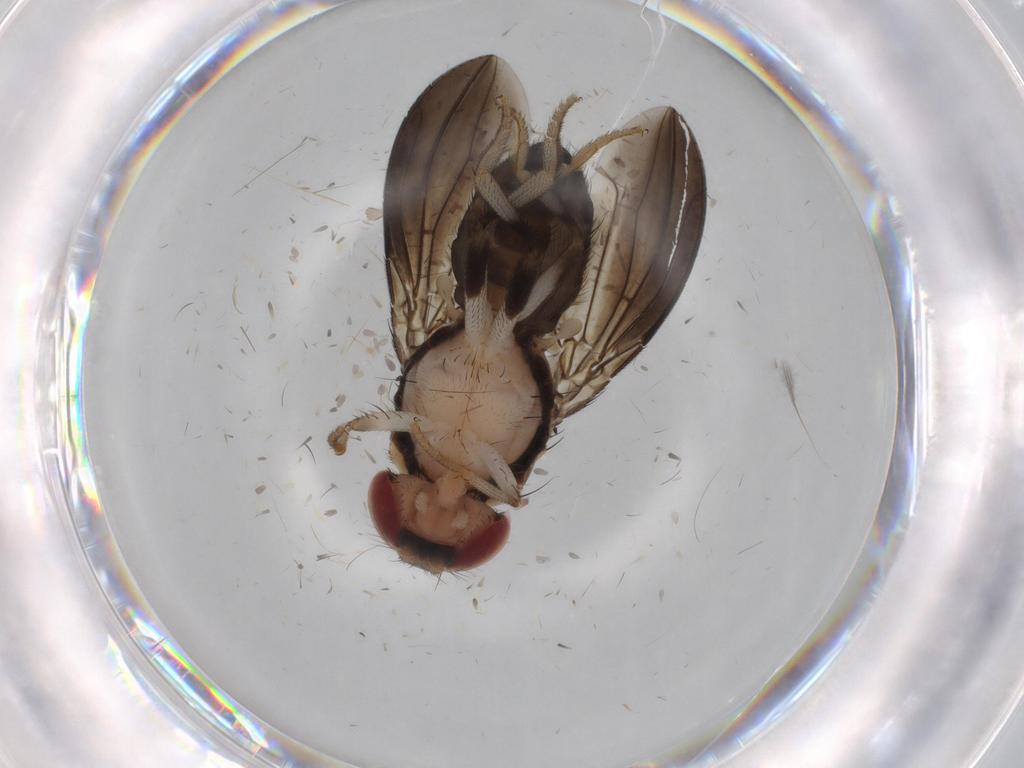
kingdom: Animalia
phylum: Arthropoda
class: Insecta
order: Diptera
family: Drosophilidae
